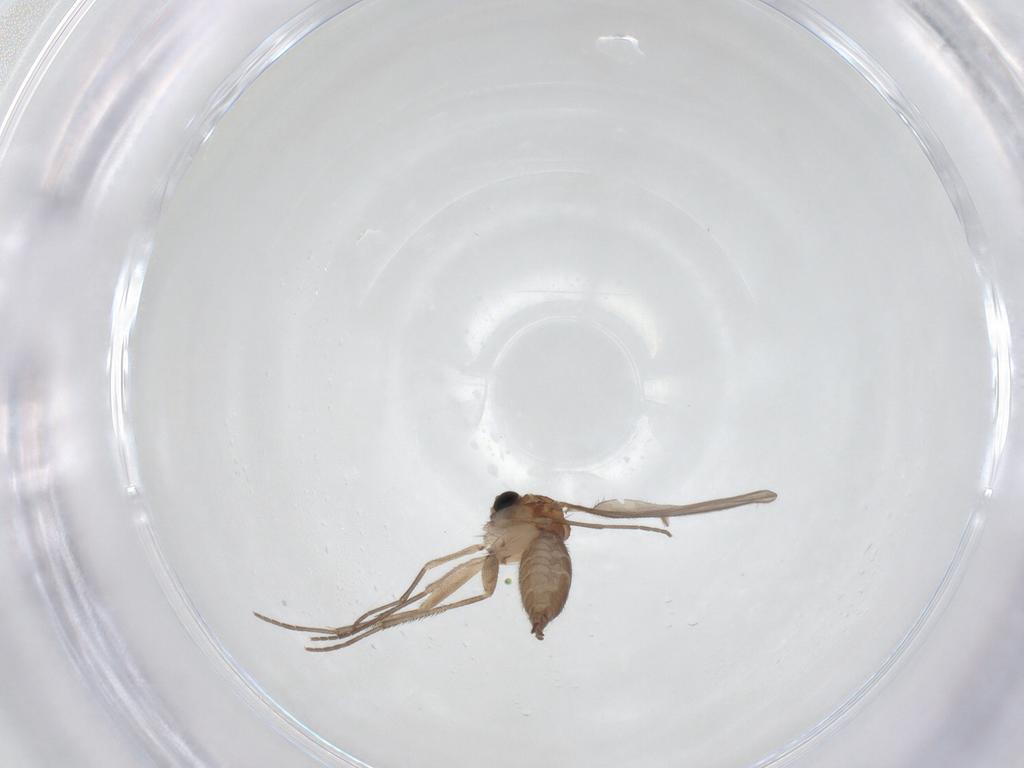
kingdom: Animalia
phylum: Arthropoda
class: Insecta
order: Diptera
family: Sciaridae
